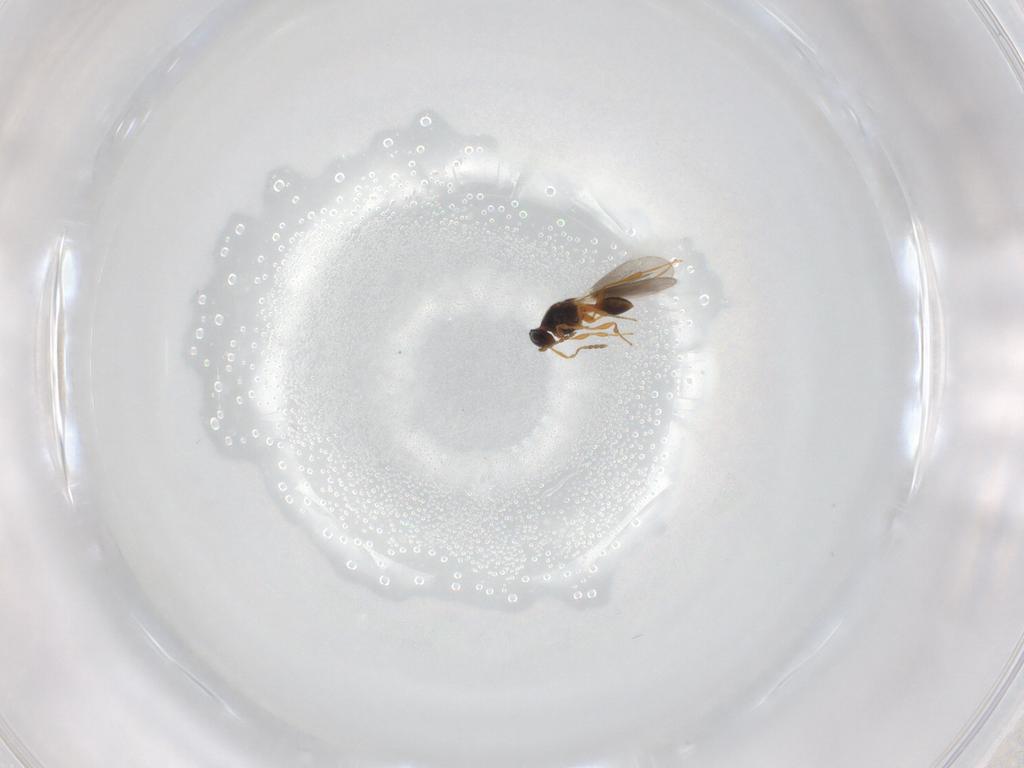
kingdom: Animalia
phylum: Arthropoda
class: Insecta
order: Hymenoptera
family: Platygastridae
